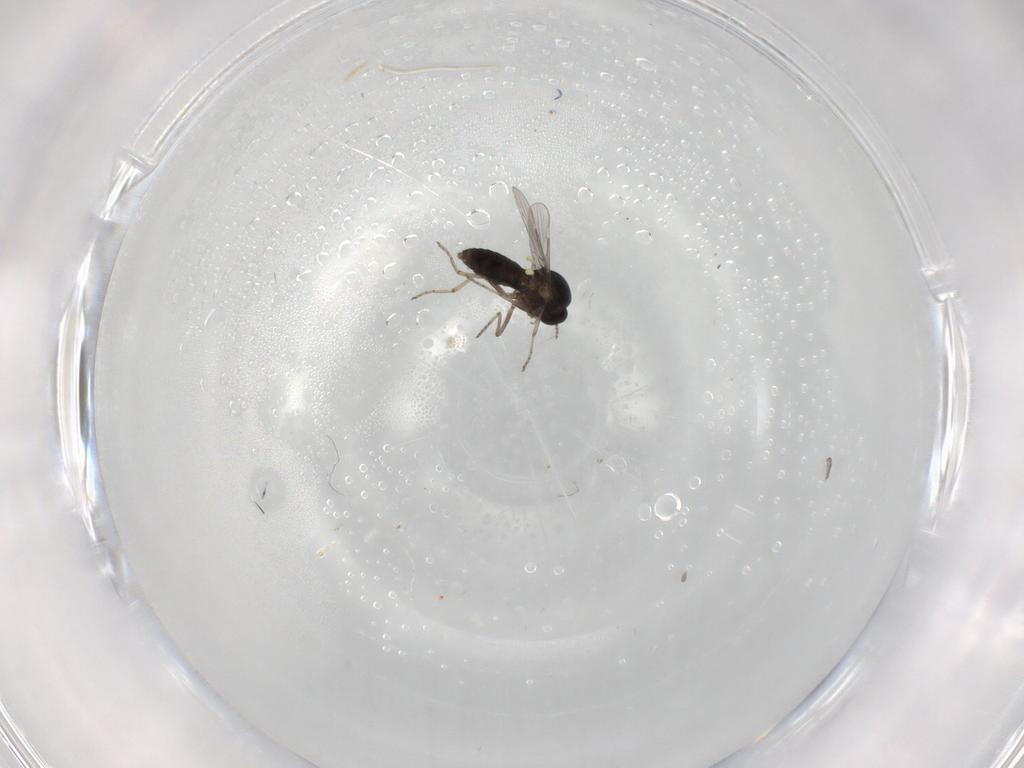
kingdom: Animalia
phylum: Arthropoda
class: Insecta
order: Diptera
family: Ceratopogonidae
